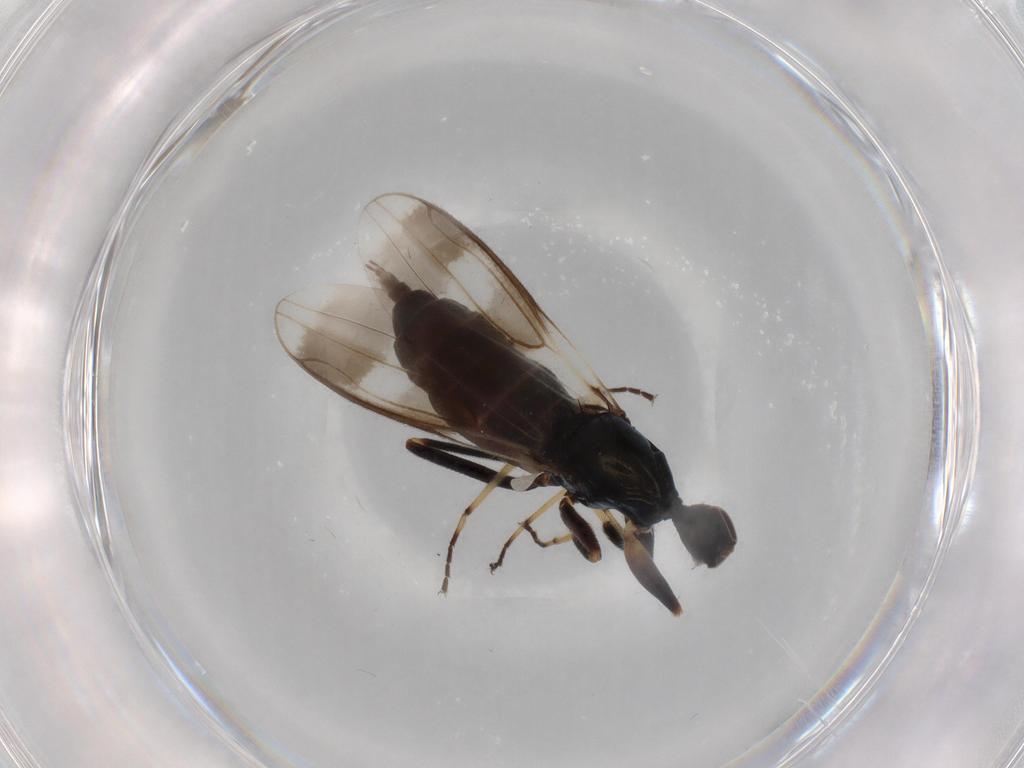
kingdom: Animalia
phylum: Arthropoda
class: Insecta
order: Diptera
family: Hybotidae
